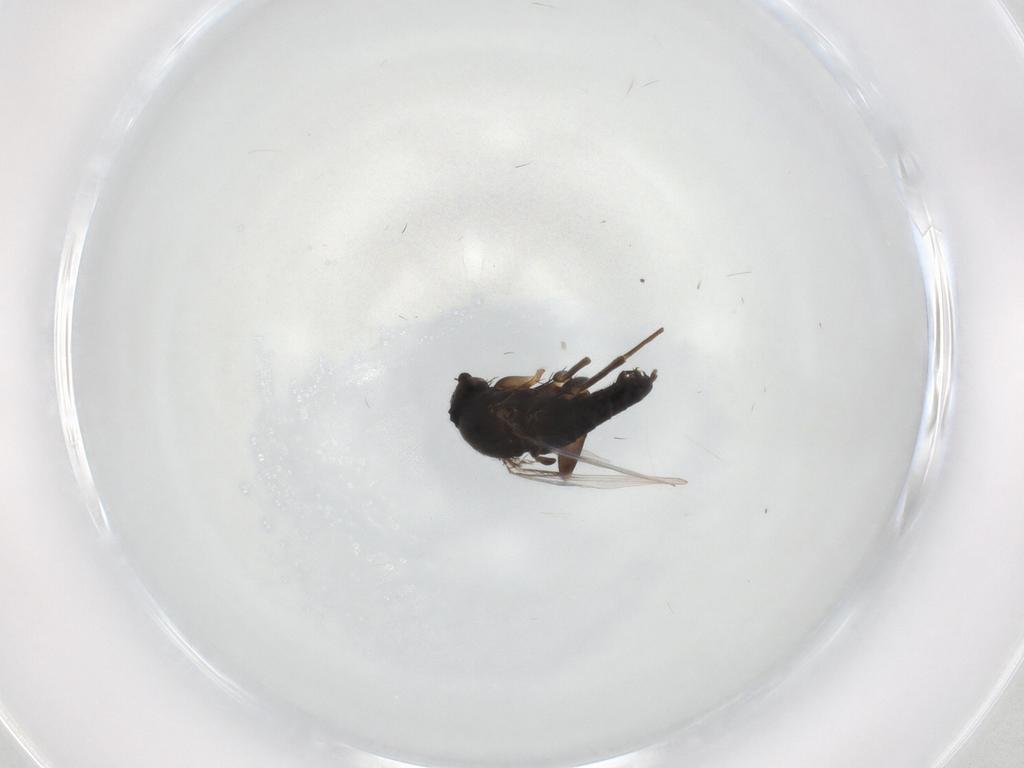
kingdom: Animalia
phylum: Arthropoda
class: Insecta
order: Diptera
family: Phoridae
